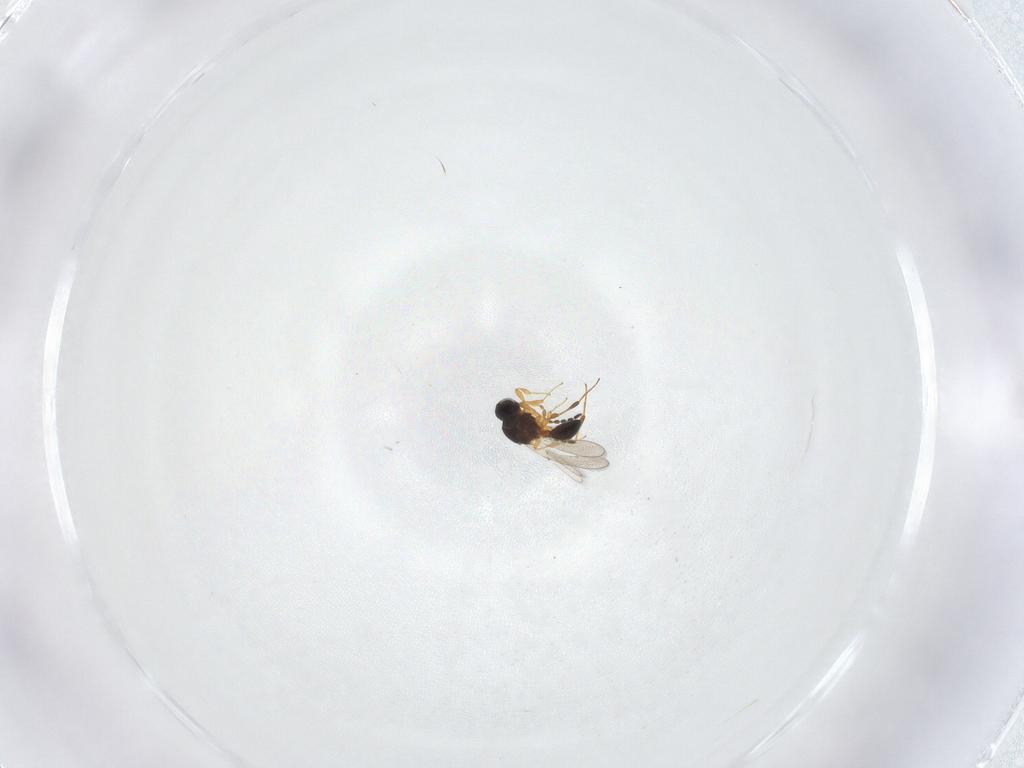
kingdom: Animalia
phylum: Arthropoda
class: Insecta
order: Hymenoptera
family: Platygastridae
